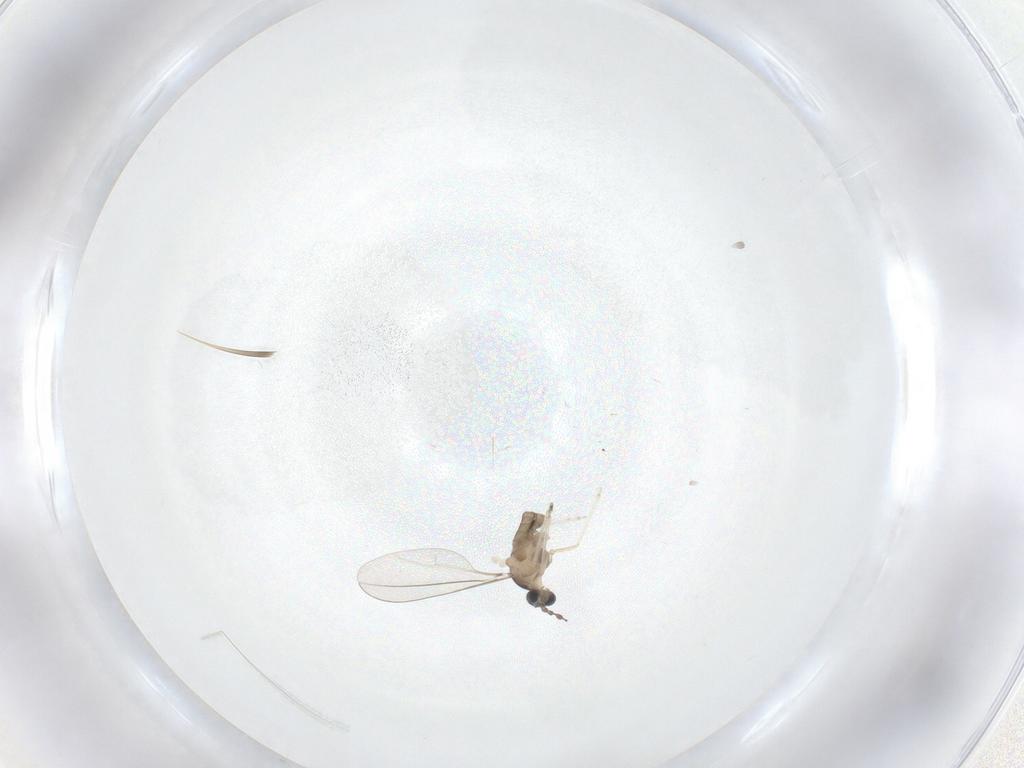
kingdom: Animalia
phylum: Arthropoda
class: Insecta
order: Diptera
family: Cecidomyiidae
